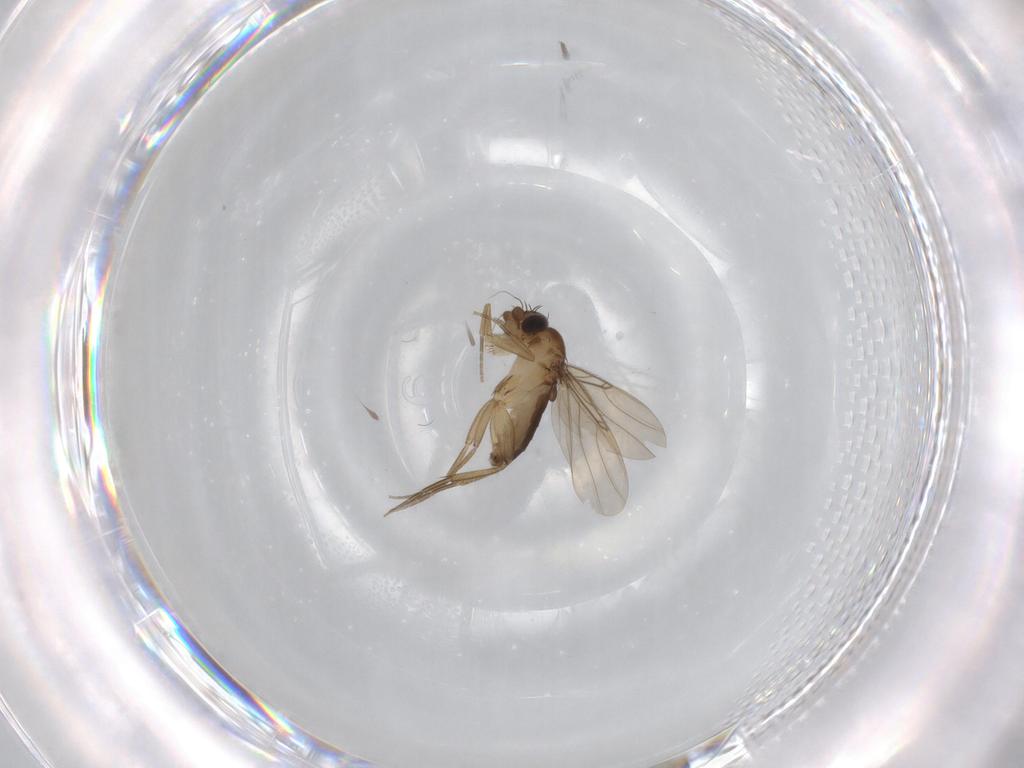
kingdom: Animalia
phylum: Arthropoda
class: Insecta
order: Diptera
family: Phoridae
